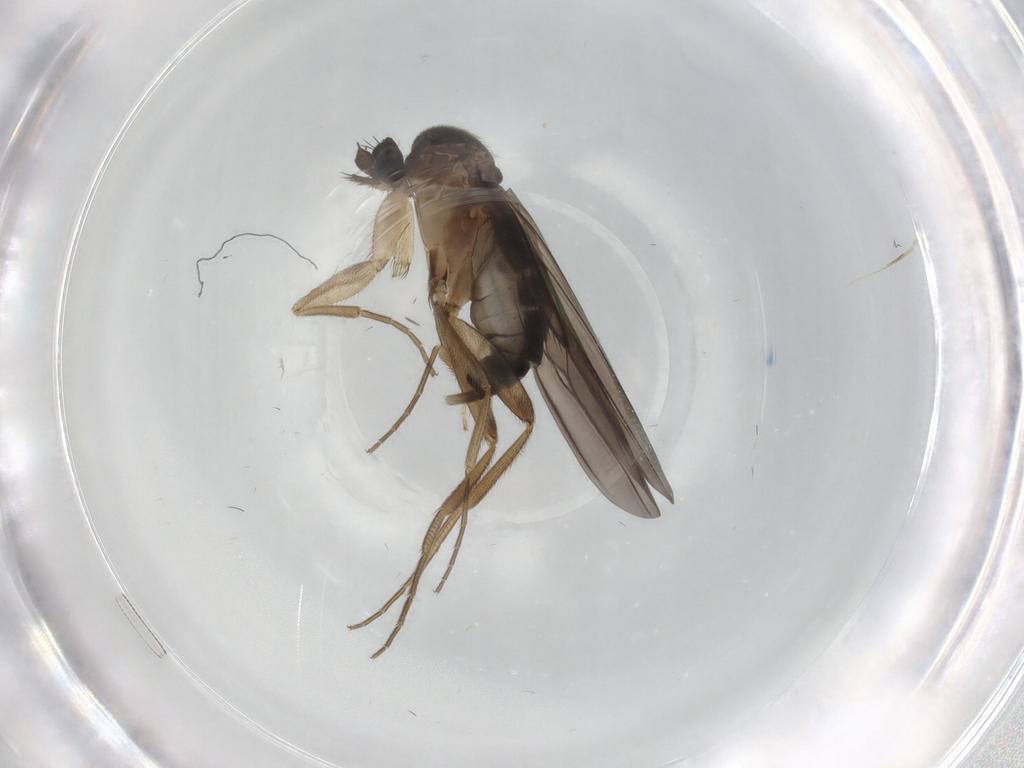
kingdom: Animalia
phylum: Arthropoda
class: Insecta
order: Diptera
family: Phoridae
